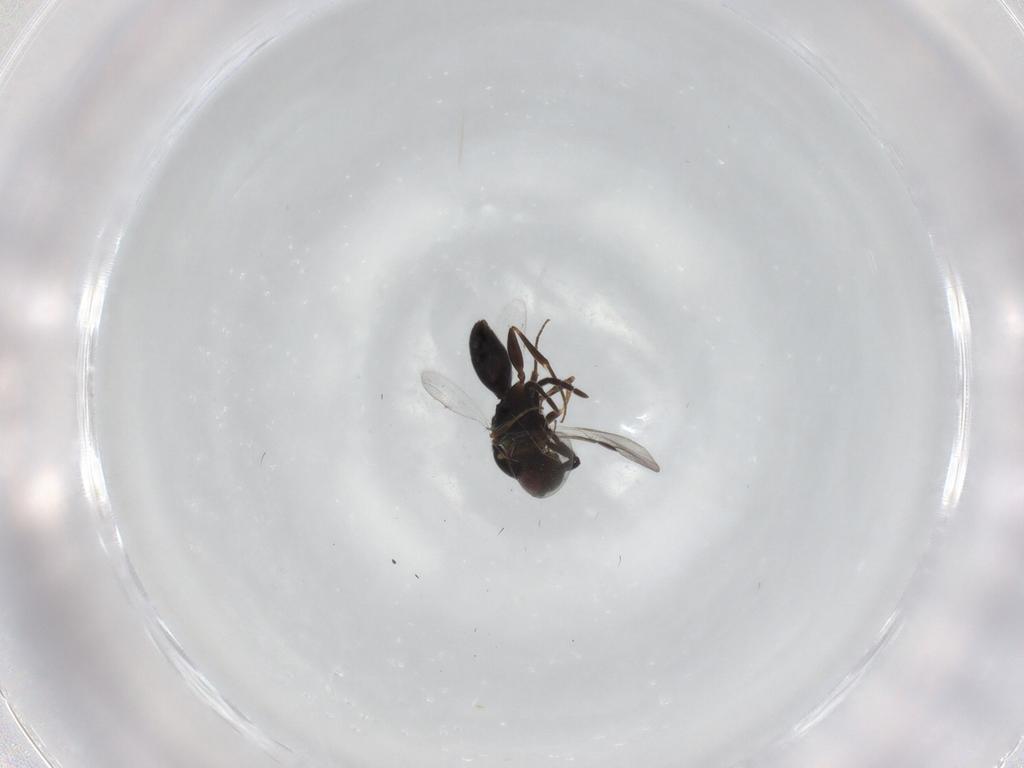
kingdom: Animalia
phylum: Arthropoda
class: Insecta
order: Hymenoptera
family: Megaspilidae
